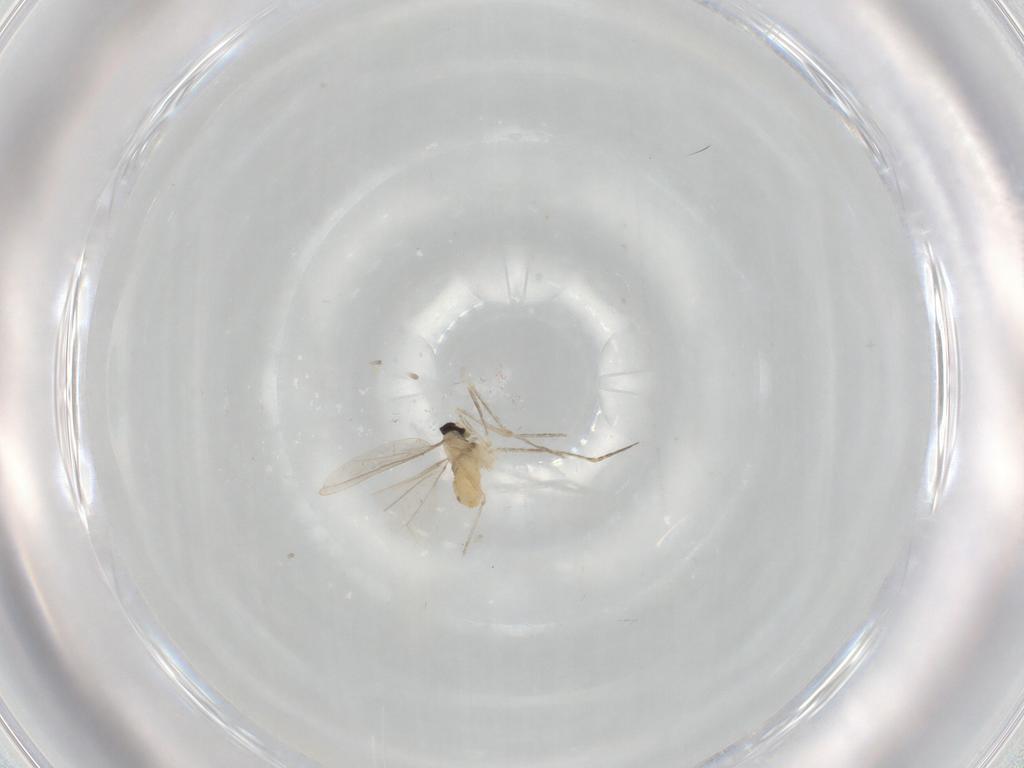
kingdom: Animalia
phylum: Arthropoda
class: Insecta
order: Diptera
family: Cecidomyiidae
